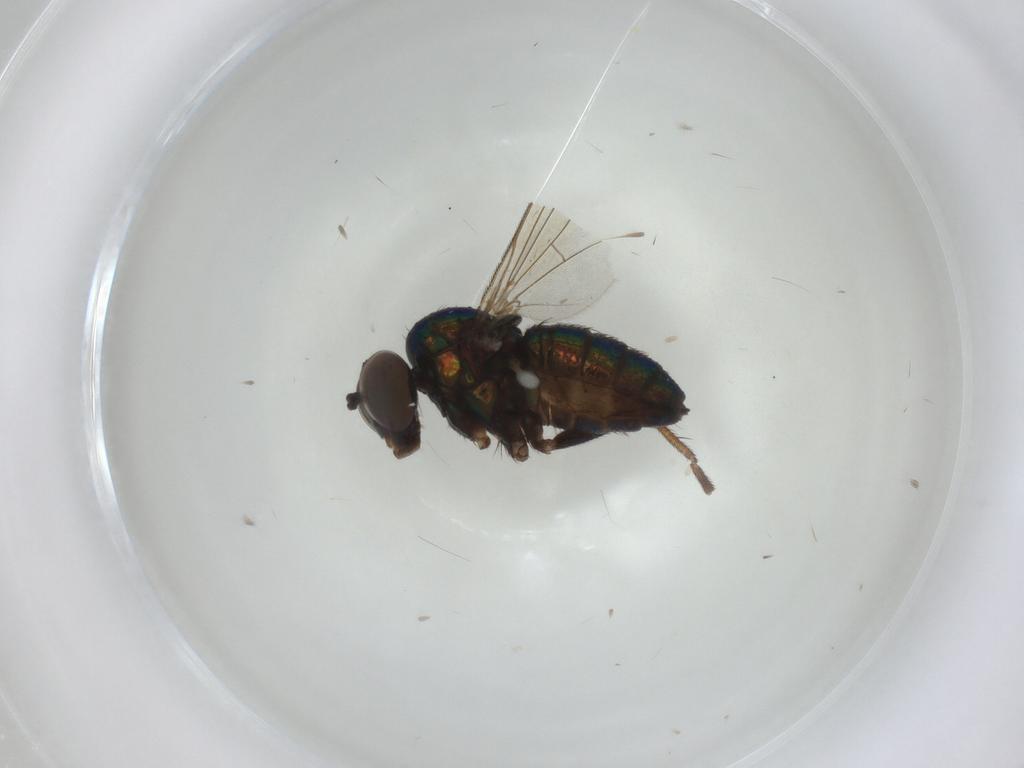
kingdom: Animalia
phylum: Arthropoda
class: Insecta
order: Diptera
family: Dolichopodidae
